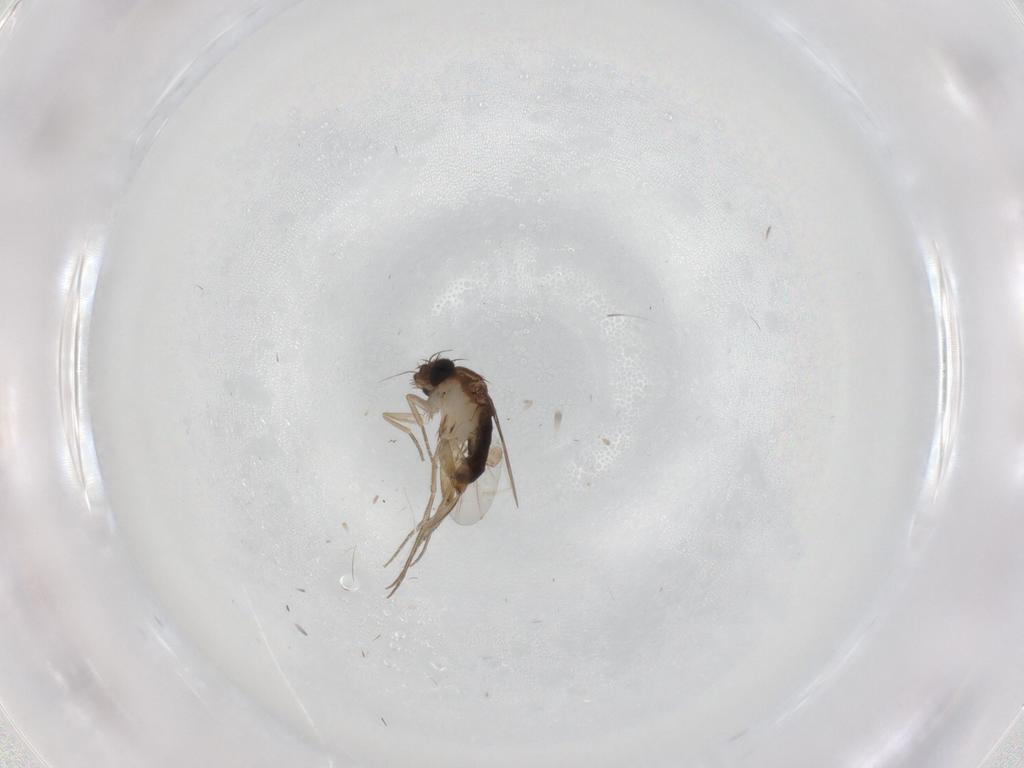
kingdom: Animalia
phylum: Arthropoda
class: Insecta
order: Diptera
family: Phoridae
